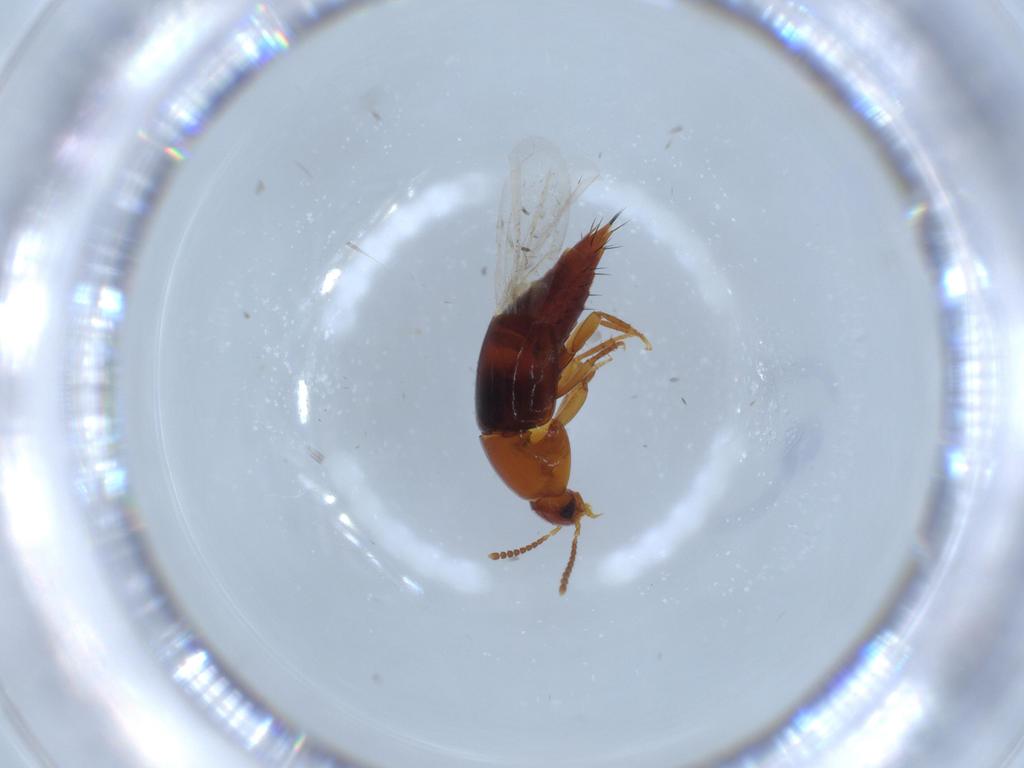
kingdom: Animalia
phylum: Arthropoda
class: Insecta
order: Coleoptera
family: Staphylinidae
